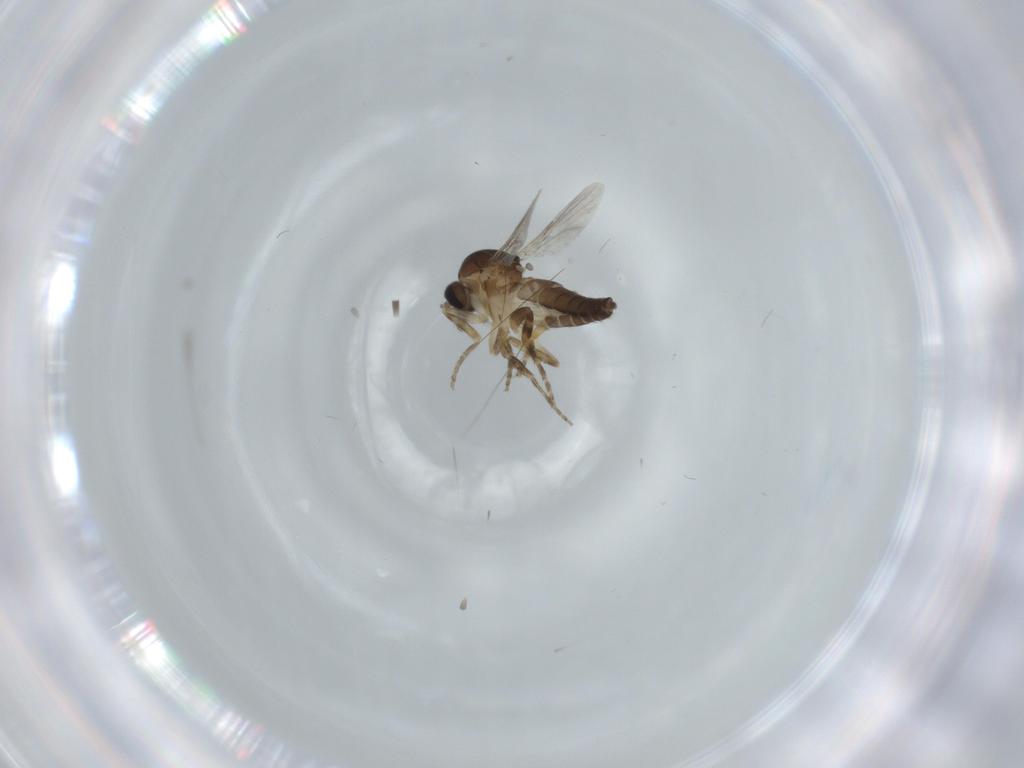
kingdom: Animalia
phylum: Arthropoda
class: Insecta
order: Diptera
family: Ceratopogonidae
